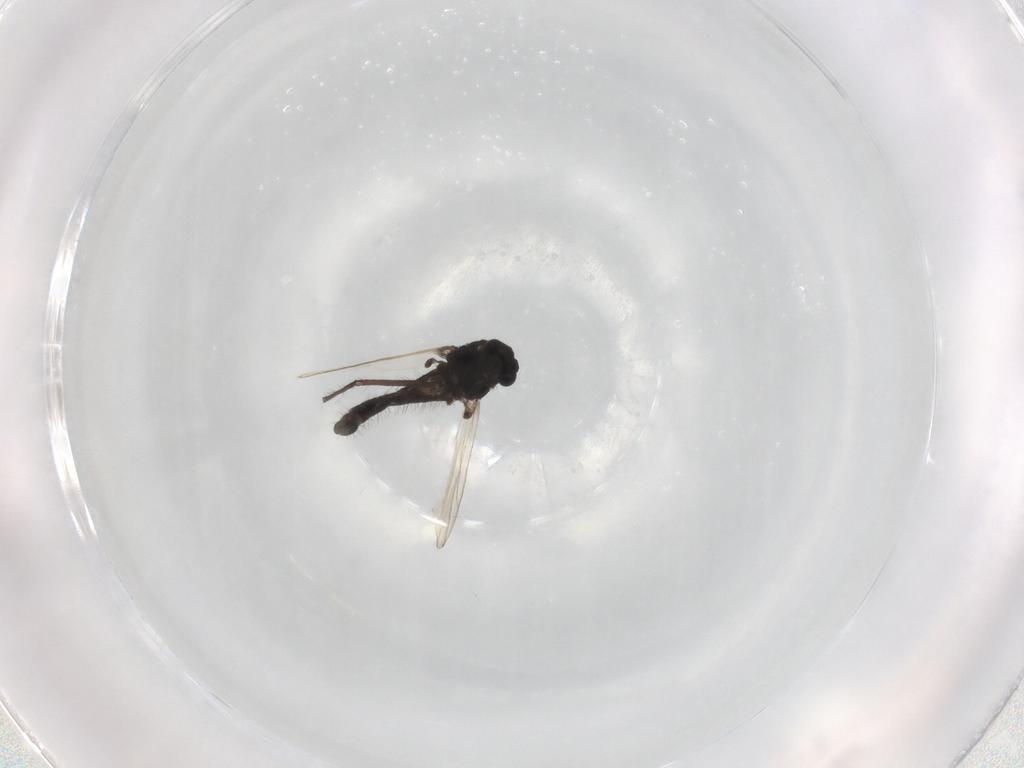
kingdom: Animalia
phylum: Arthropoda
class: Insecta
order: Diptera
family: Chironomidae
